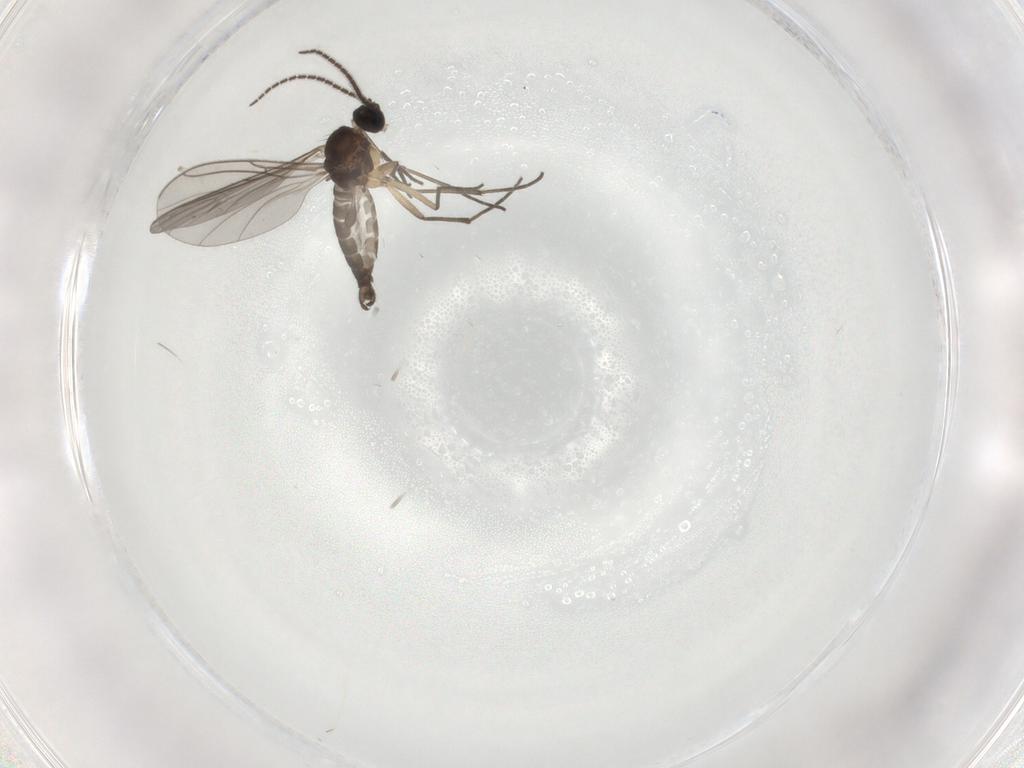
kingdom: Animalia
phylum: Arthropoda
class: Insecta
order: Diptera
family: Sciaridae
